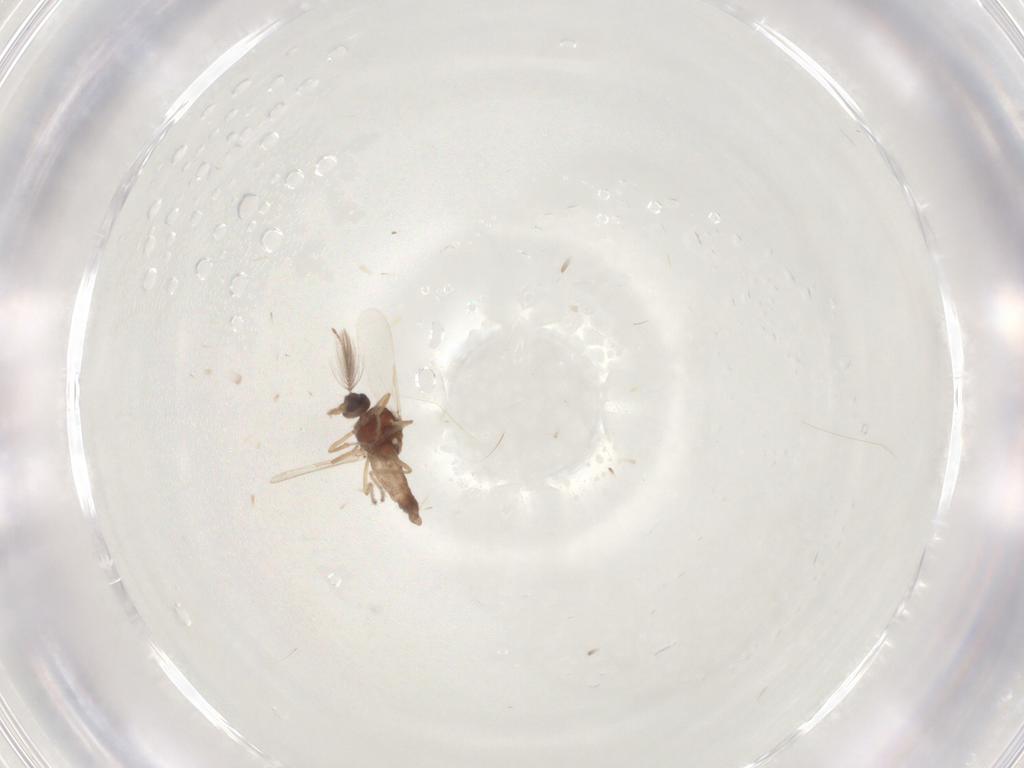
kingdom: Animalia
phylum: Arthropoda
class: Insecta
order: Diptera
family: Ceratopogonidae
